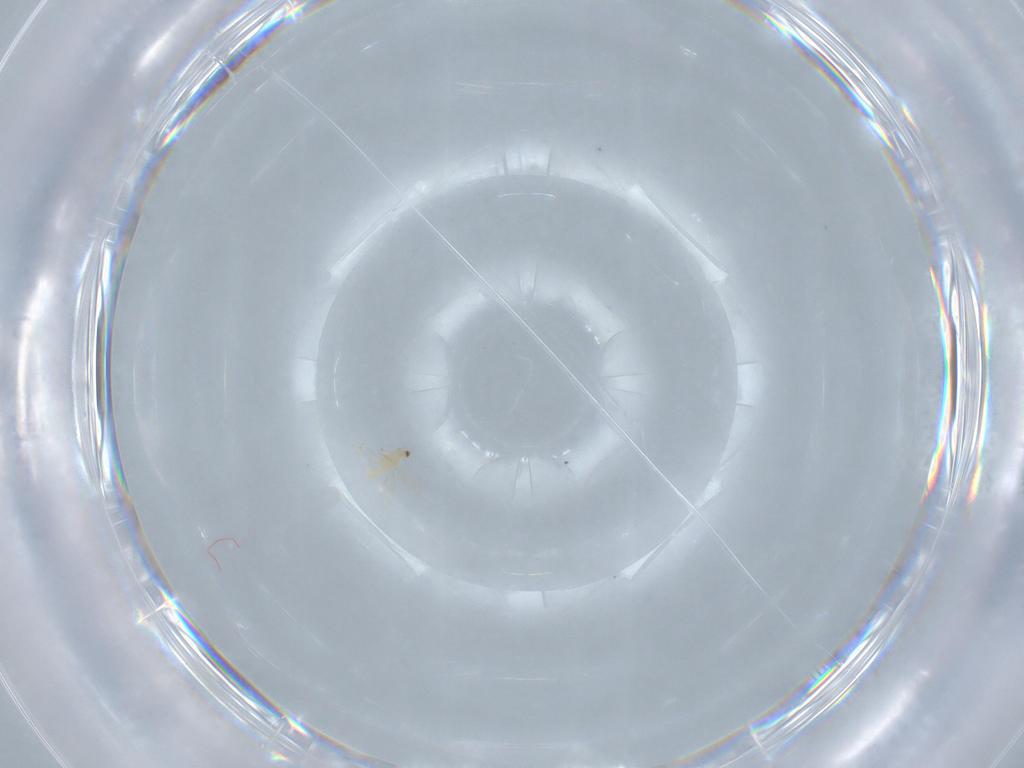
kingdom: Animalia
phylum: Arthropoda
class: Insecta
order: Hymenoptera
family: Aphelinidae
